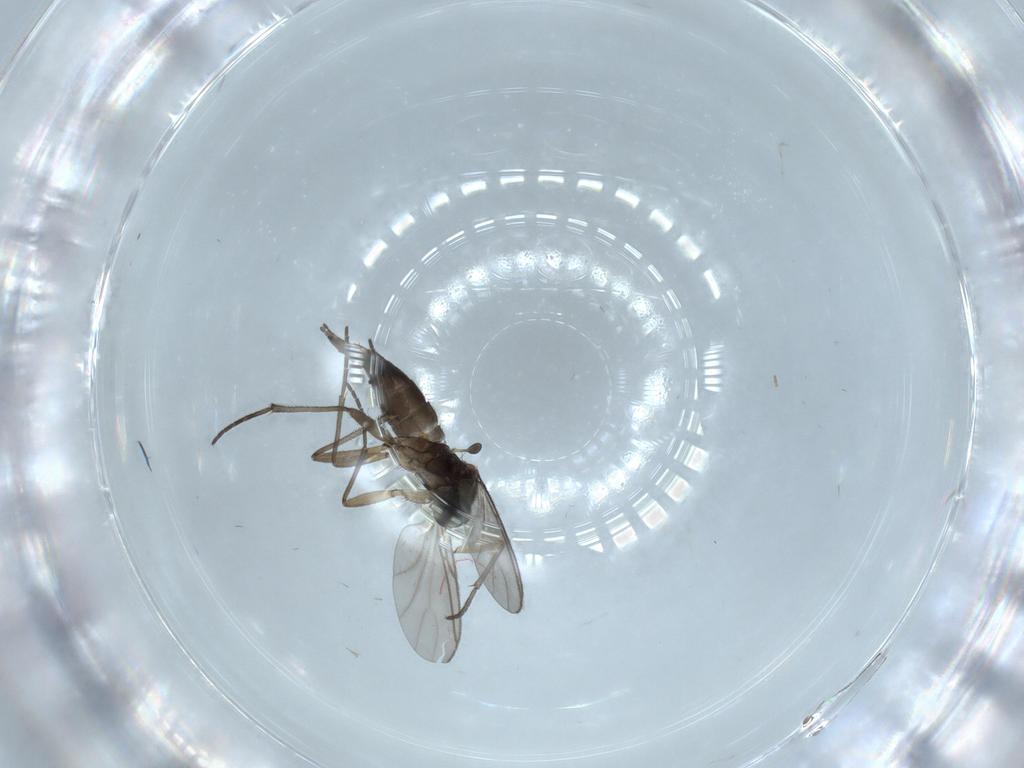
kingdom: Animalia
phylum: Arthropoda
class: Insecta
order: Diptera
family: Xylomyidae
